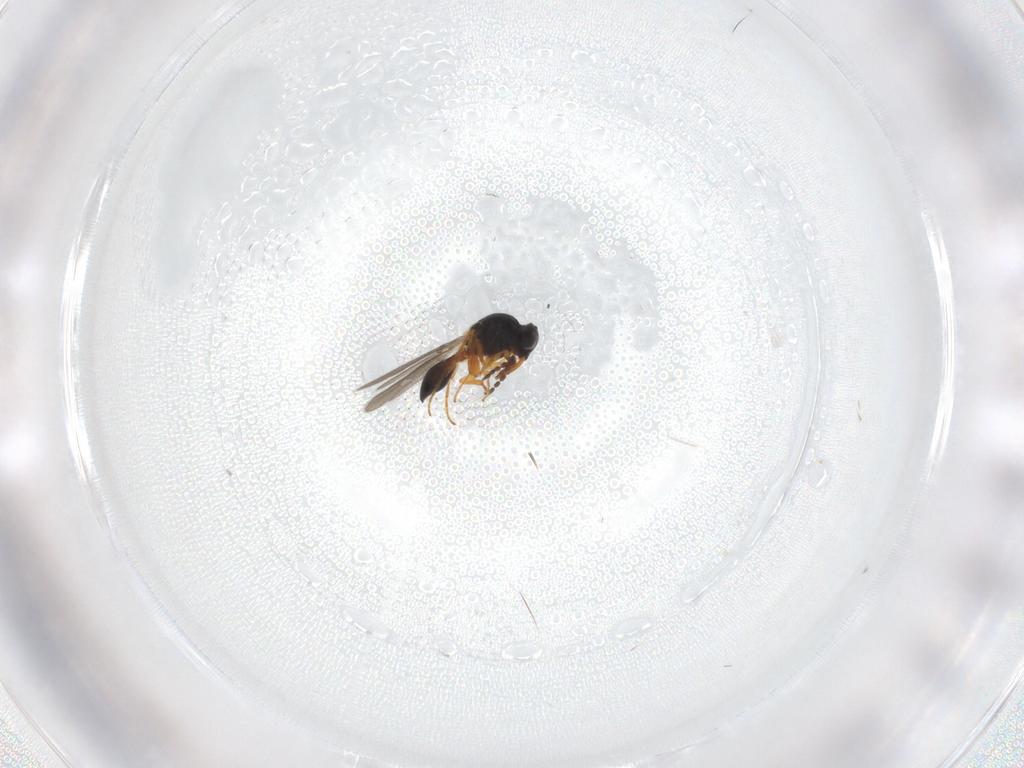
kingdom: Animalia
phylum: Arthropoda
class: Insecta
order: Hymenoptera
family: Platygastridae
